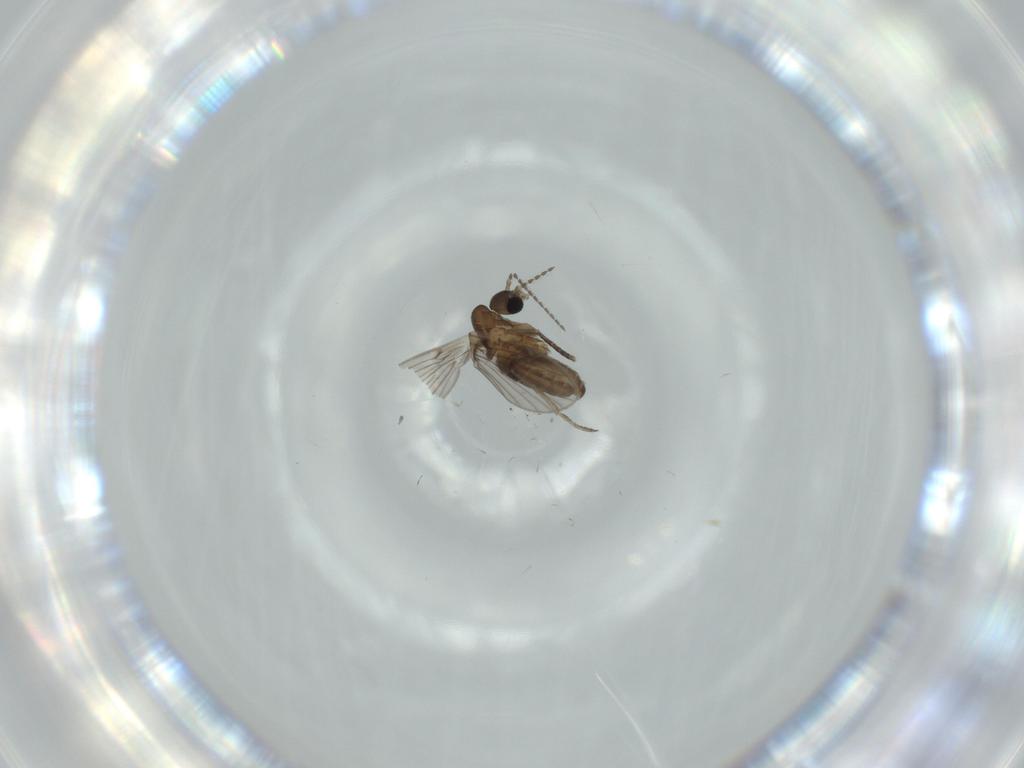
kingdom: Animalia
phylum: Arthropoda
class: Insecta
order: Diptera
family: Psychodidae
